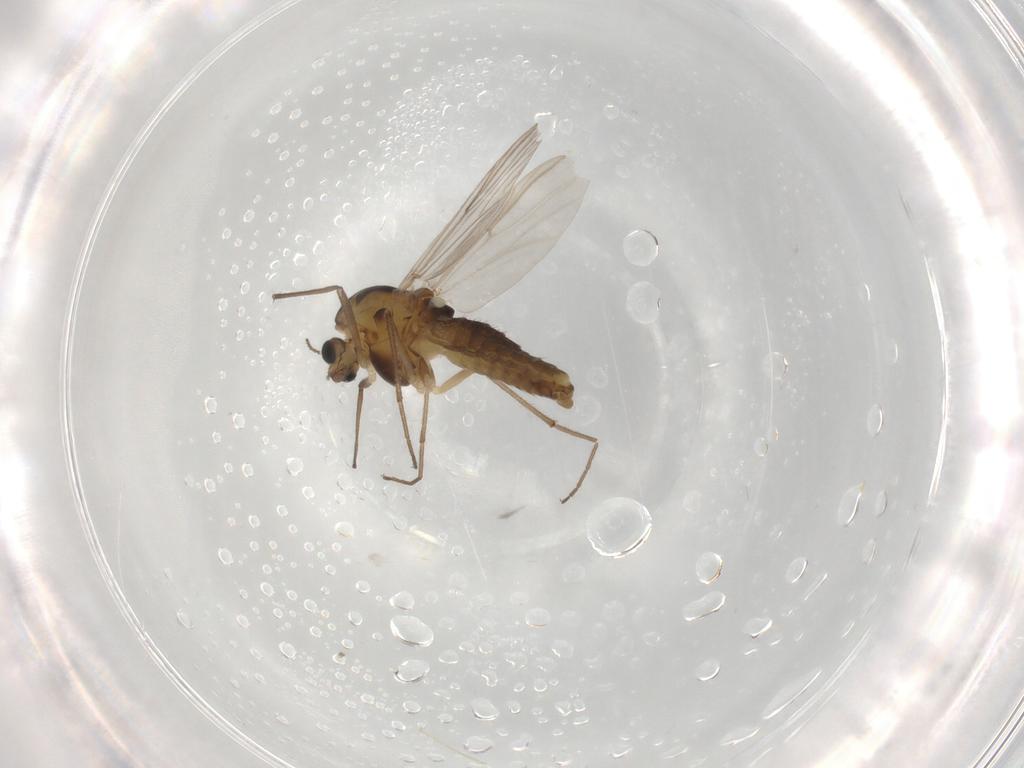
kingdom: Animalia
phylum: Arthropoda
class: Insecta
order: Diptera
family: Chironomidae
